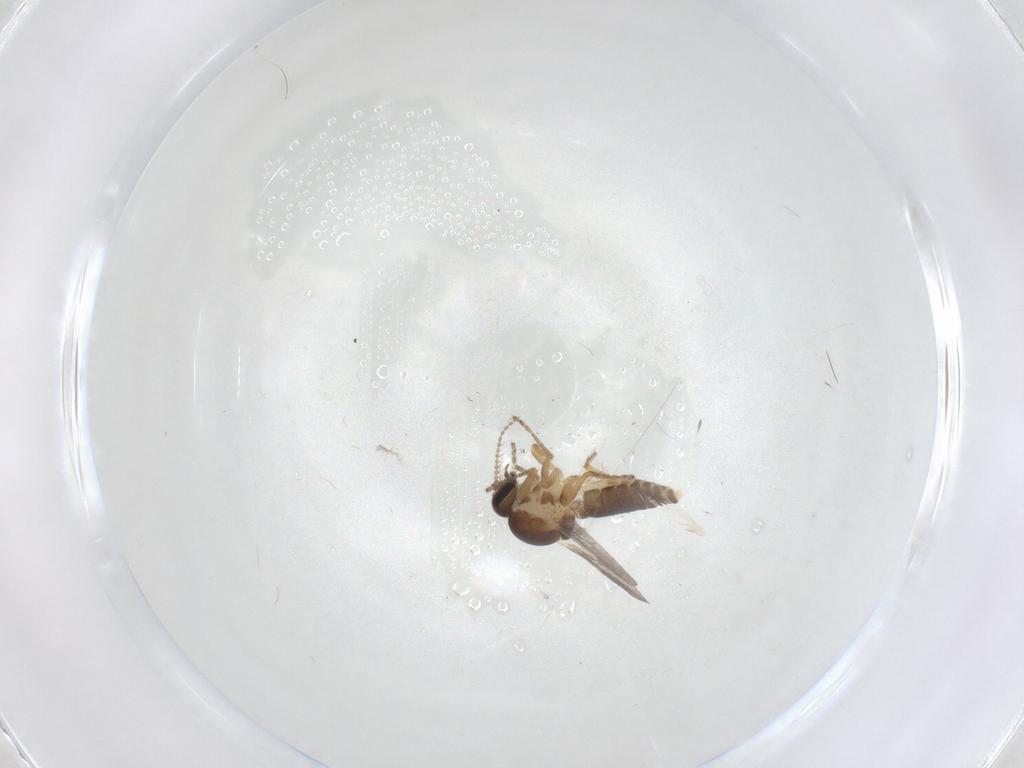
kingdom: Animalia
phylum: Arthropoda
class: Insecta
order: Diptera
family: Ceratopogonidae
